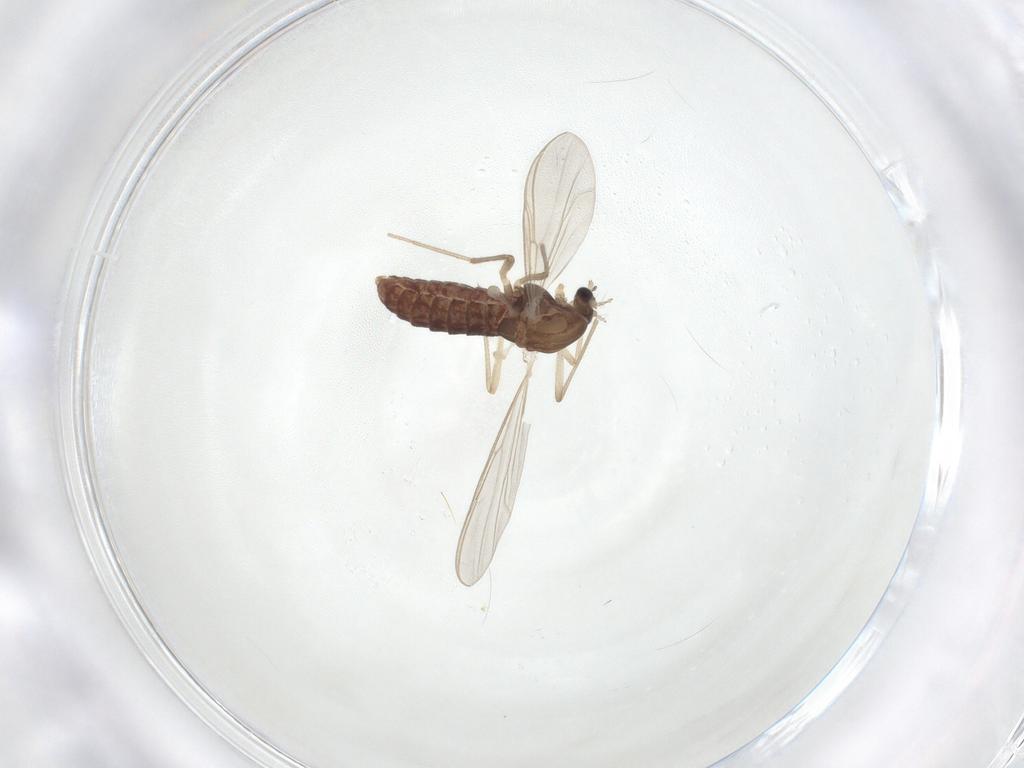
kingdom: Animalia
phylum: Arthropoda
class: Insecta
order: Diptera
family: Chironomidae
